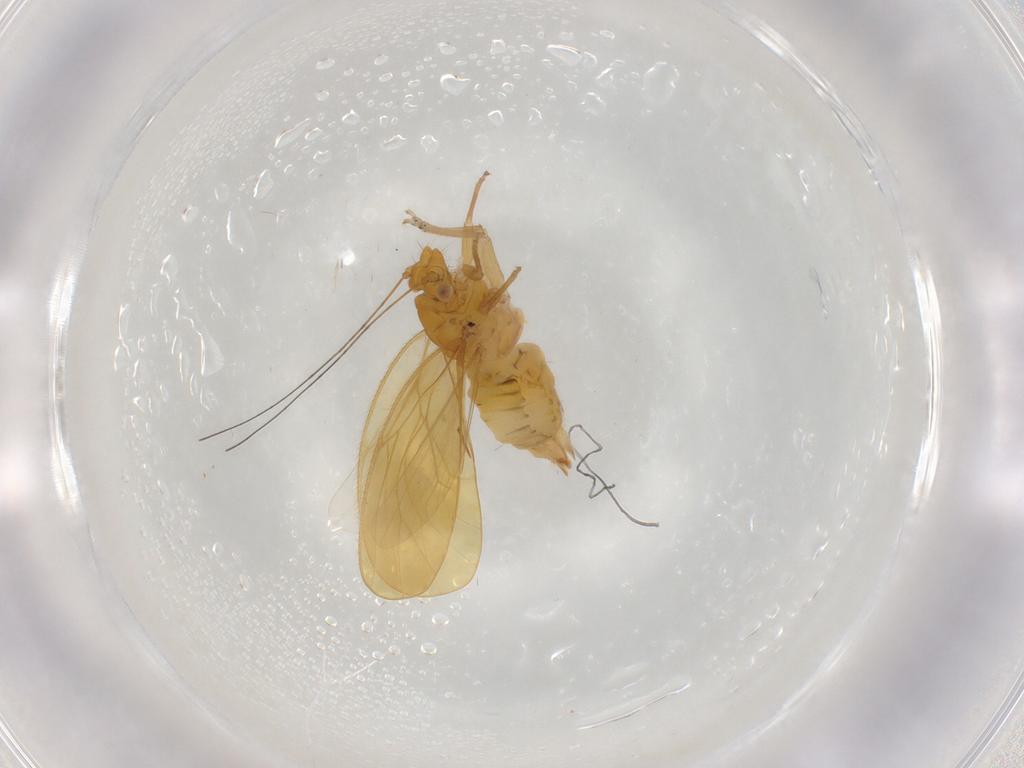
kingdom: Animalia
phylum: Arthropoda
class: Insecta
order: Hemiptera
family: Psyllidae
